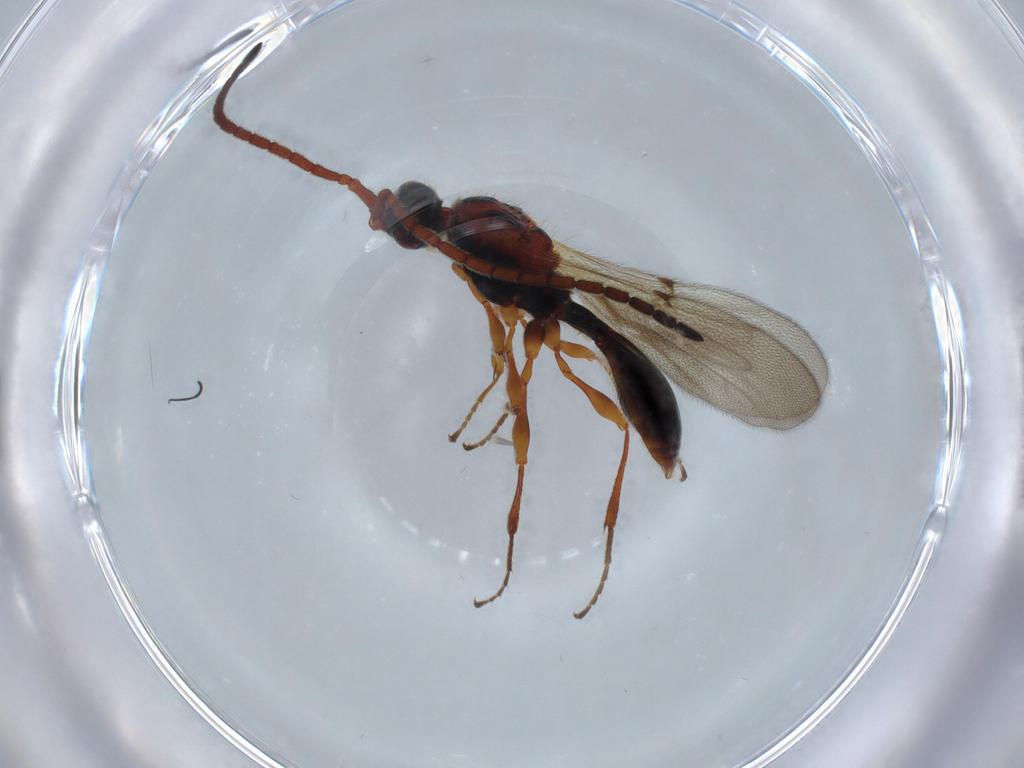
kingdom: Animalia
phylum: Arthropoda
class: Insecta
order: Hymenoptera
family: Diapriidae
